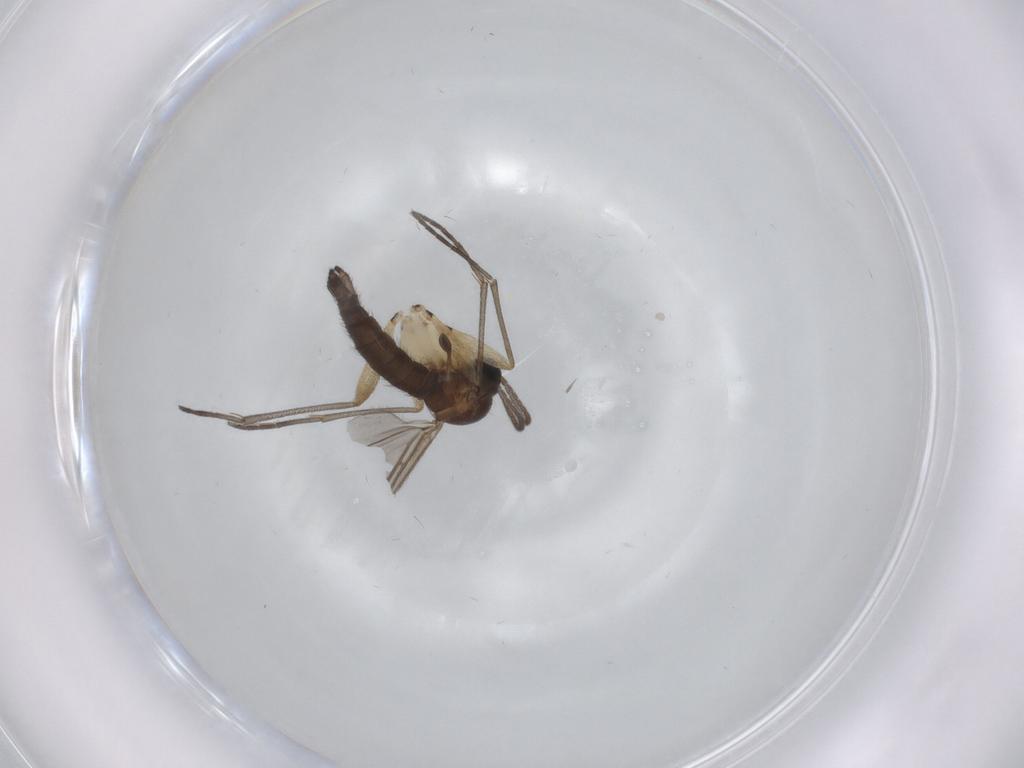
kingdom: Animalia
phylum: Arthropoda
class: Insecta
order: Diptera
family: Sciaridae
